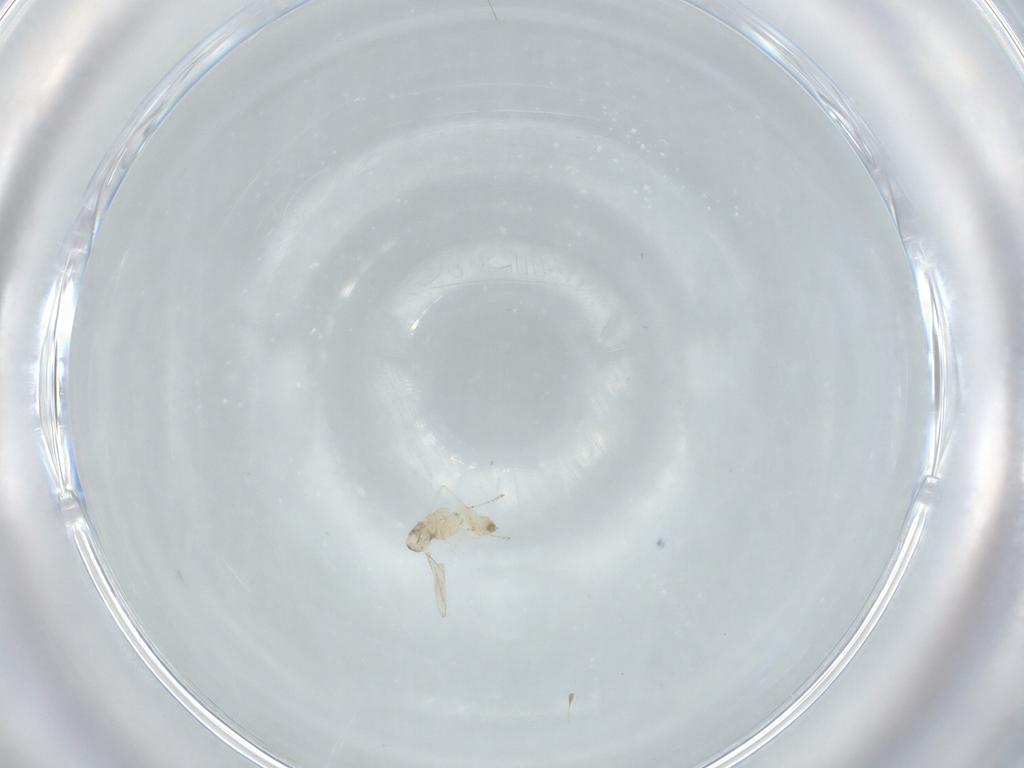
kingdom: Animalia
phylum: Arthropoda
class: Insecta
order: Diptera
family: Cecidomyiidae
